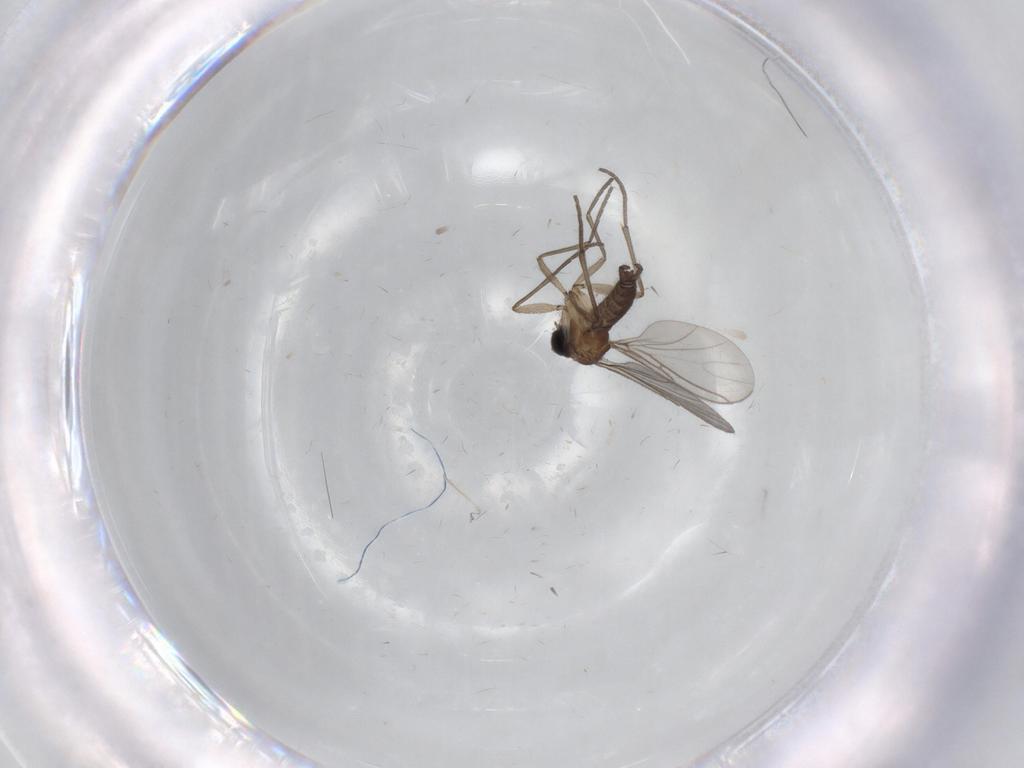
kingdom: Animalia
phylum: Arthropoda
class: Insecta
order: Diptera
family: Sciaridae
